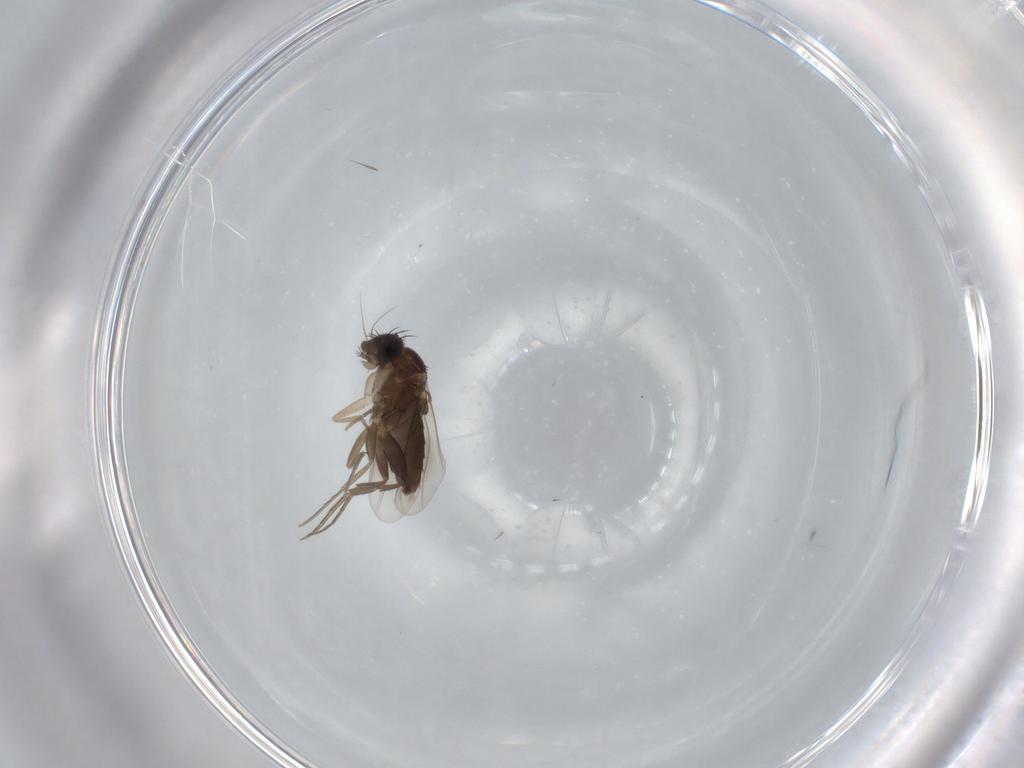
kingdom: Animalia
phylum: Arthropoda
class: Insecta
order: Diptera
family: Phoridae
